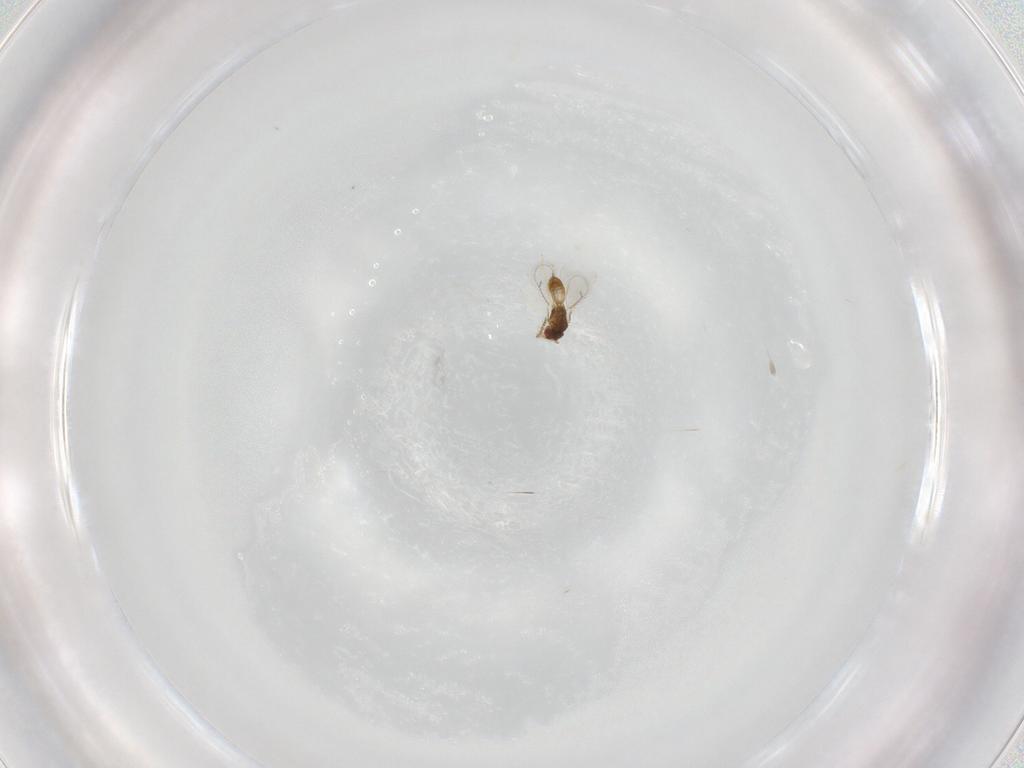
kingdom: Animalia
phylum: Arthropoda
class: Insecta
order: Hymenoptera
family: Eulophidae
